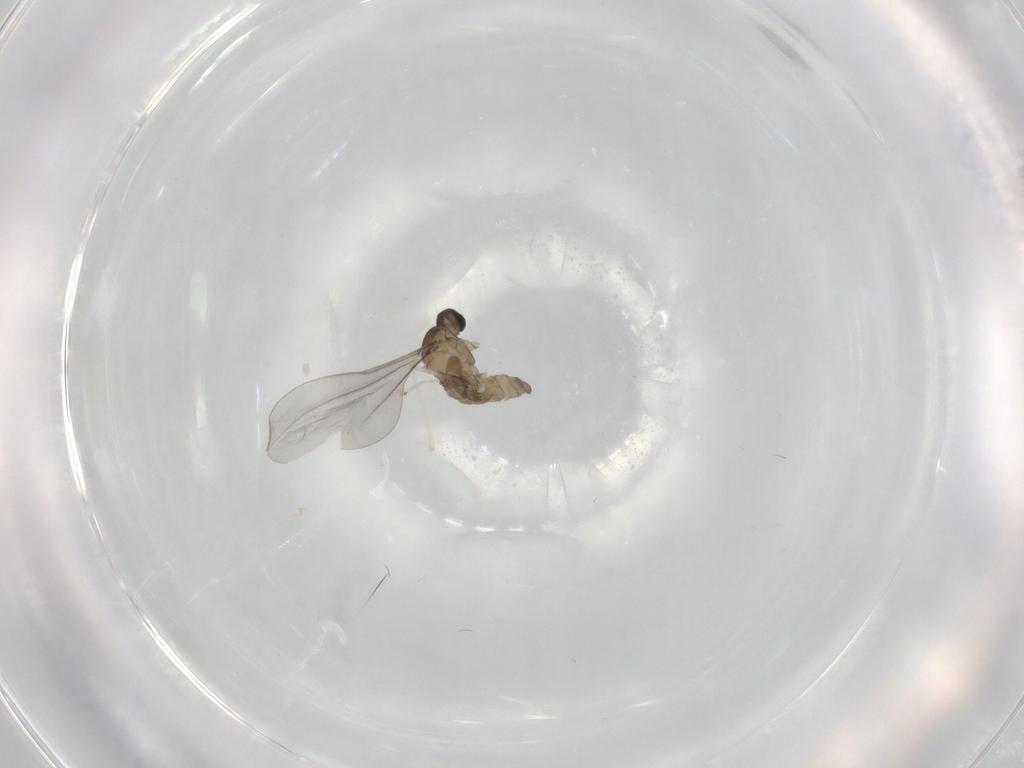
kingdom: Animalia
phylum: Arthropoda
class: Insecta
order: Diptera
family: Cecidomyiidae
